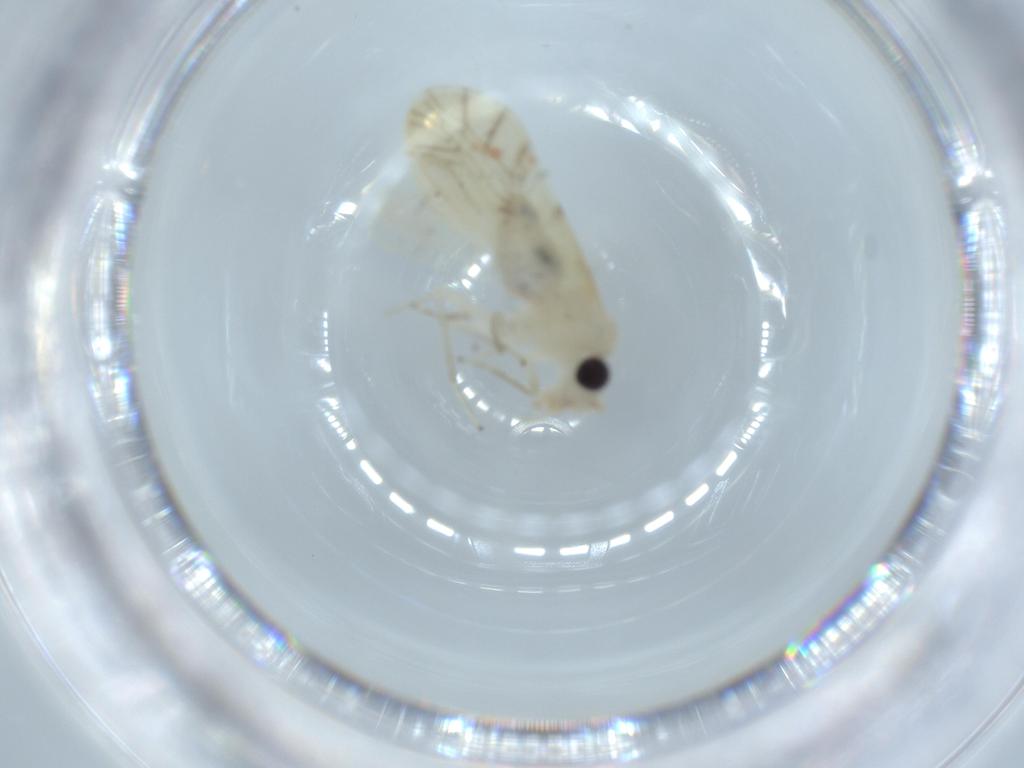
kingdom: Animalia
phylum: Arthropoda
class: Insecta
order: Psocodea
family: Caeciliusidae
